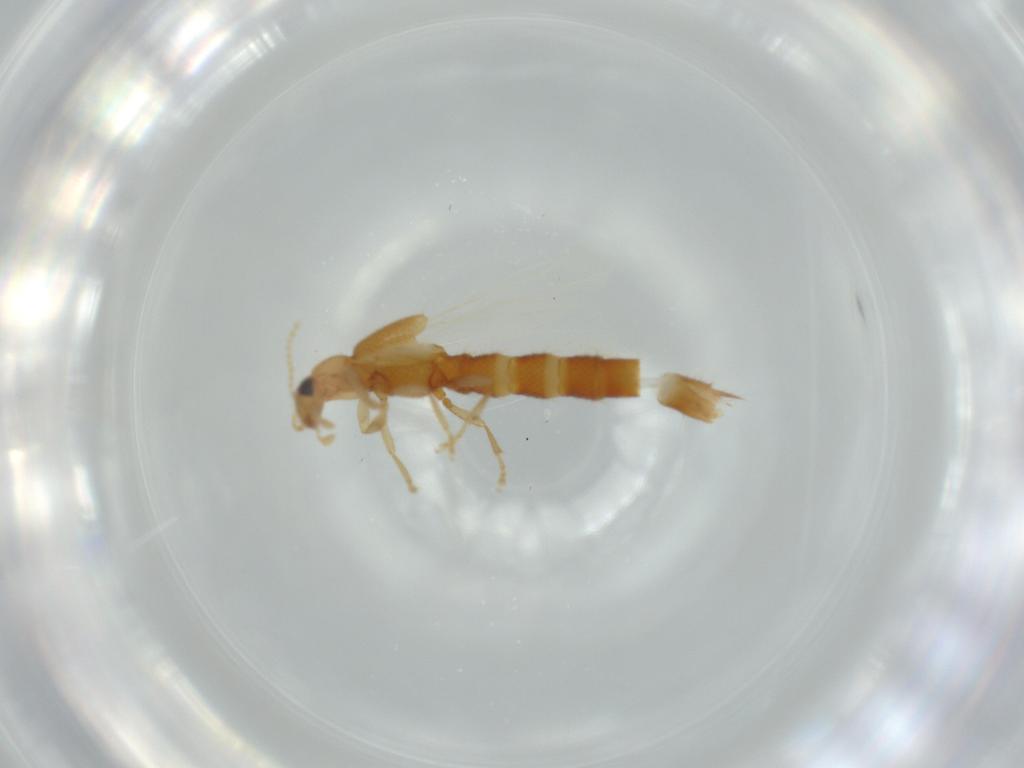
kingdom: Animalia
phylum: Arthropoda
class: Insecta
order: Coleoptera
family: Staphylinidae
